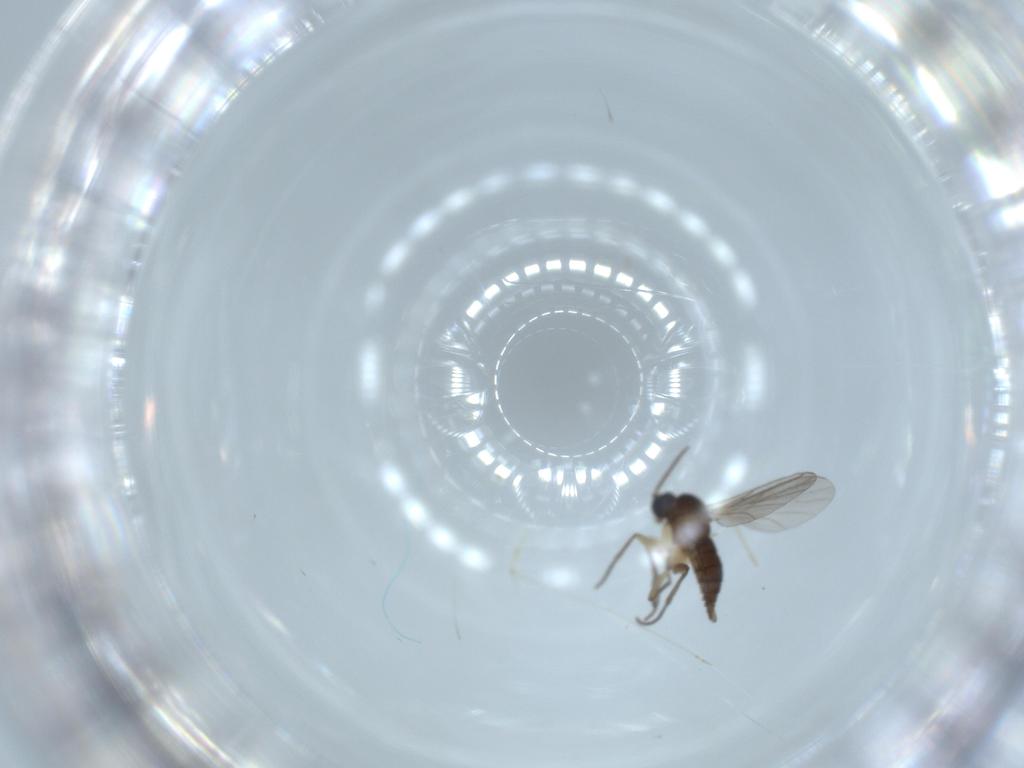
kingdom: Animalia
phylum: Arthropoda
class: Insecta
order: Diptera
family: Sciaridae
